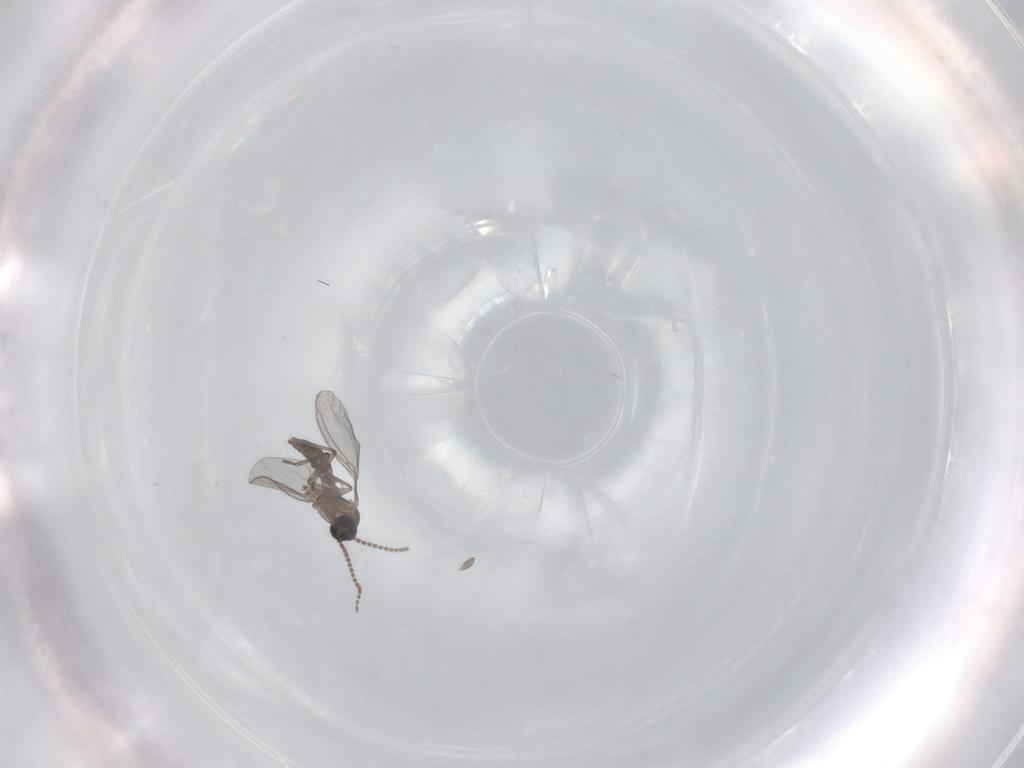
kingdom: Animalia
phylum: Arthropoda
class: Insecta
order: Diptera
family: Sciaridae
